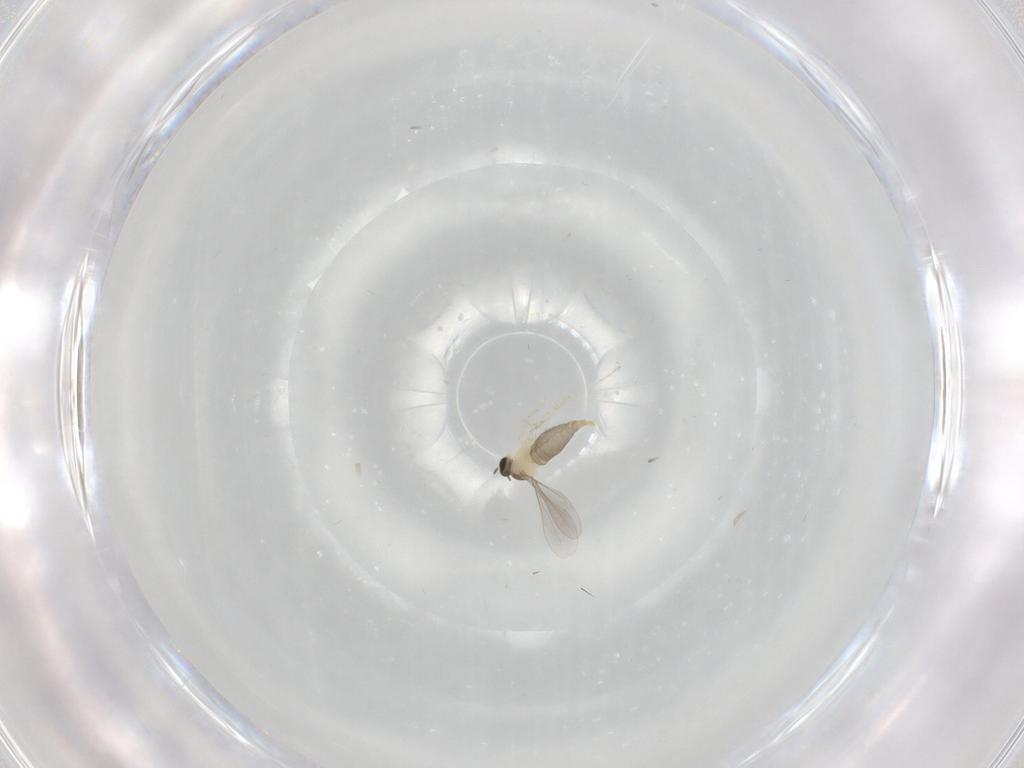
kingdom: Animalia
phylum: Arthropoda
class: Insecta
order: Diptera
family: Cecidomyiidae
